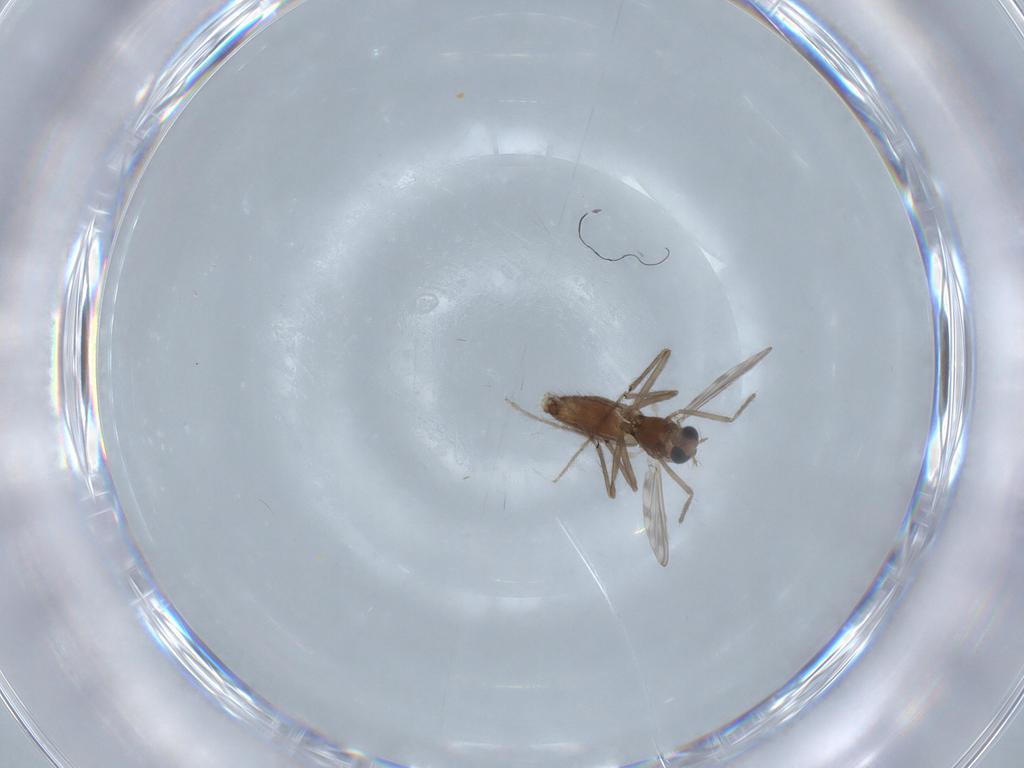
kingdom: Animalia
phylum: Arthropoda
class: Insecta
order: Diptera
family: Chironomidae
